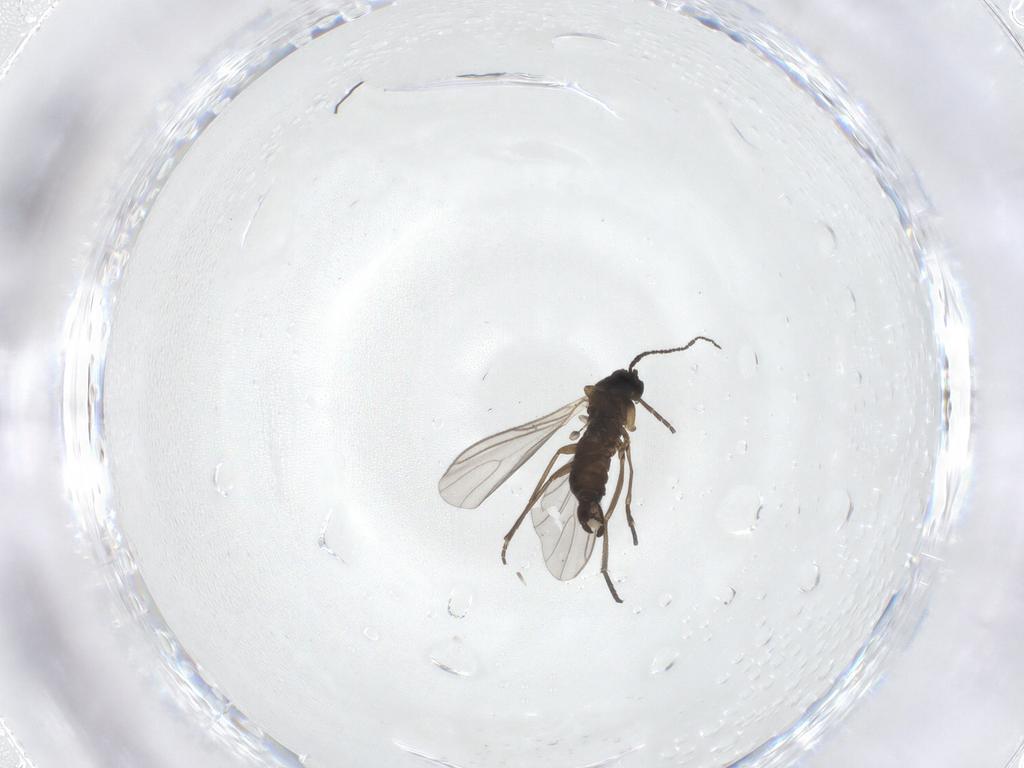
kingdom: Animalia
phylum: Arthropoda
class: Insecta
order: Diptera
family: Sciaridae
